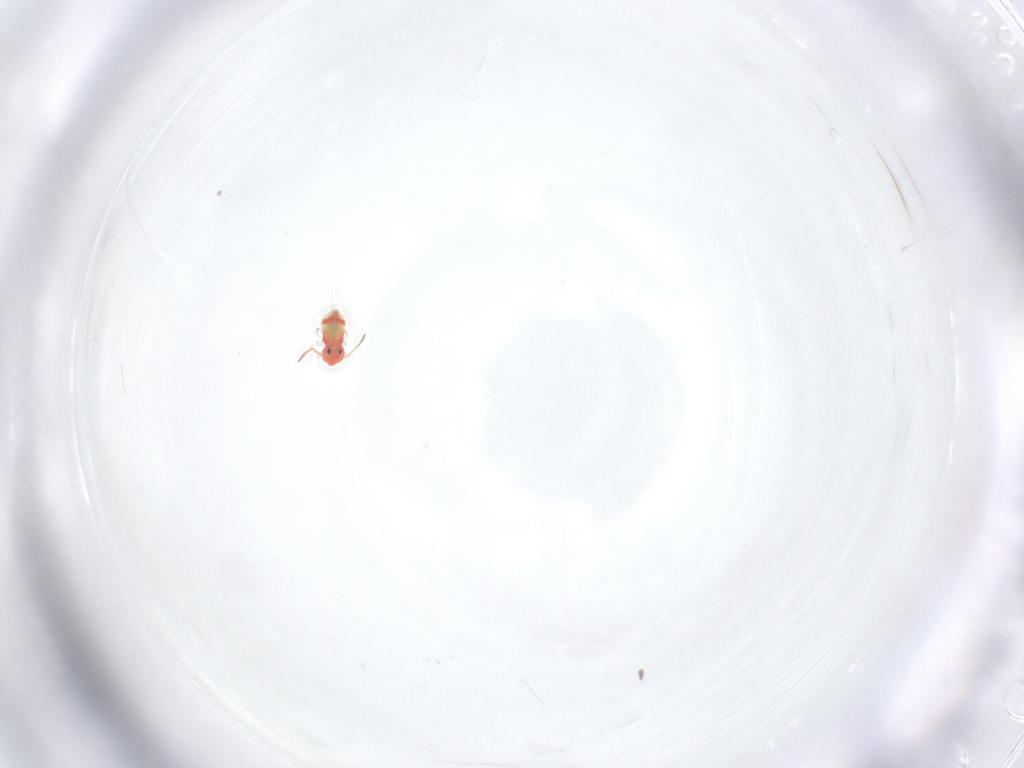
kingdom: Animalia
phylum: Arthropoda
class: Collembola
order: Symphypleona
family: Bourletiellidae
